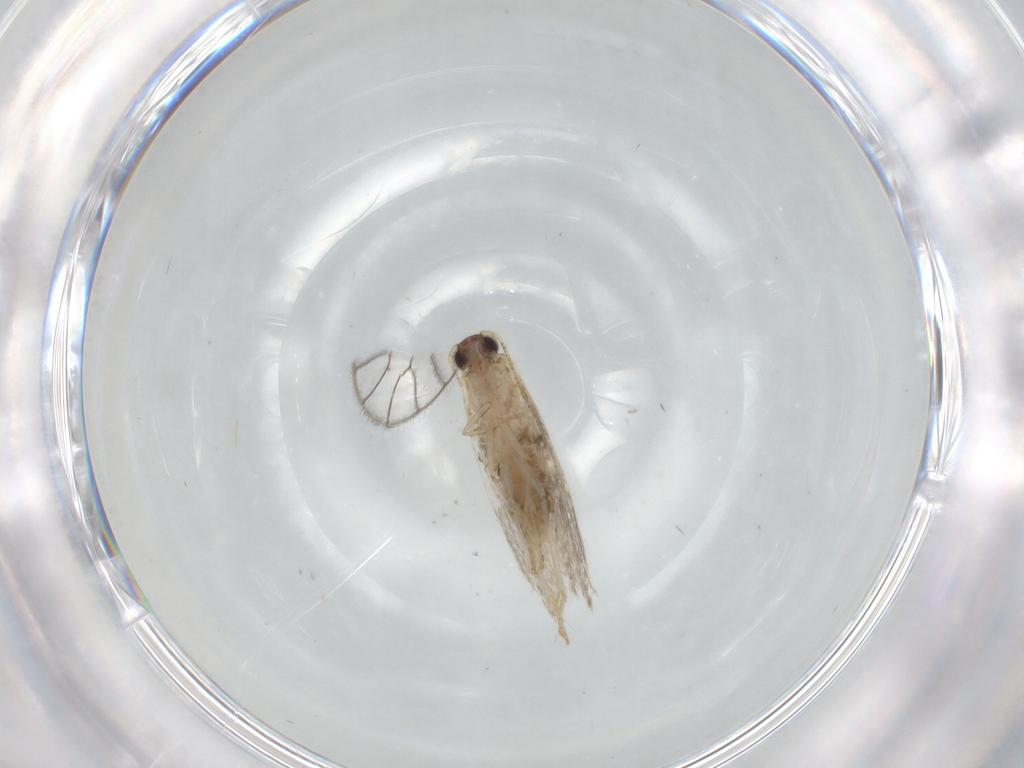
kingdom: Animalia
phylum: Arthropoda
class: Insecta
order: Lepidoptera
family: Tineidae
